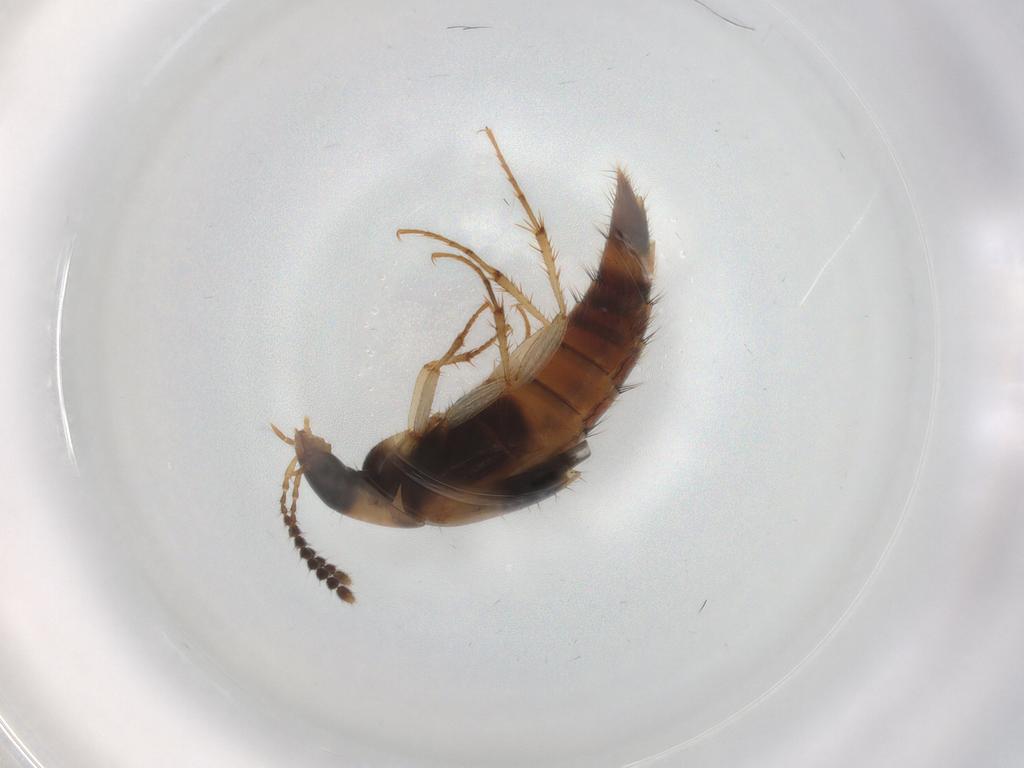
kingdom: Animalia
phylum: Arthropoda
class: Insecta
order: Coleoptera
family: Staphylinidae
